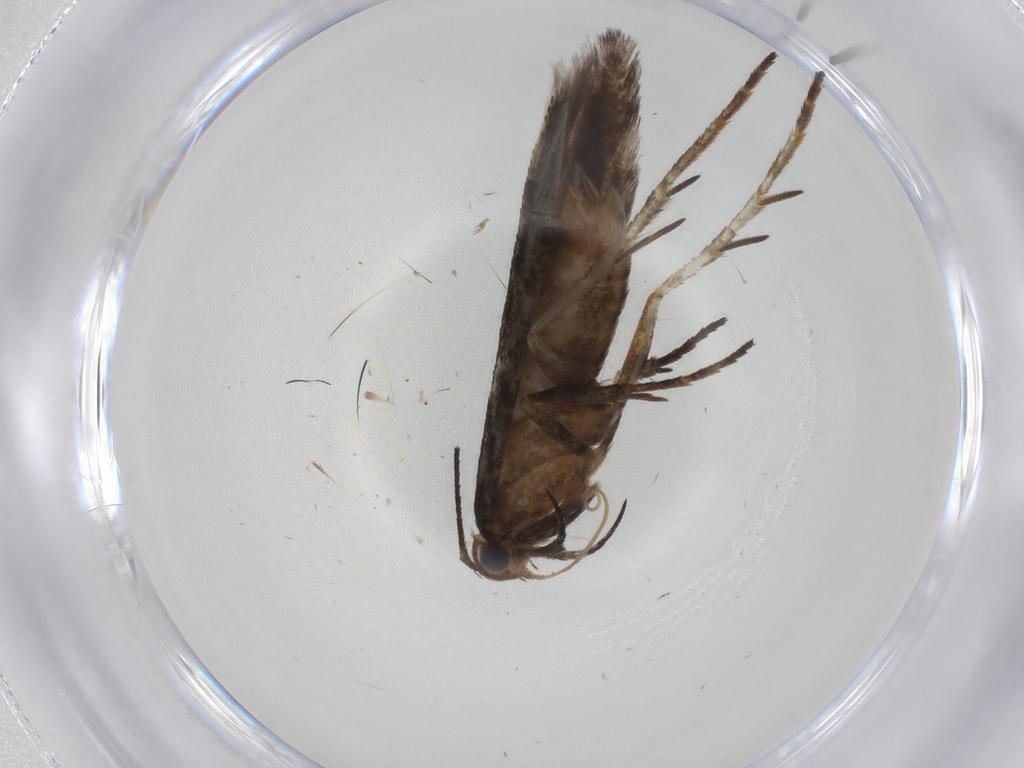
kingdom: Animalia
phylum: Arthropoda
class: Insecta
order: Lepidoptera
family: Gelechiidae
